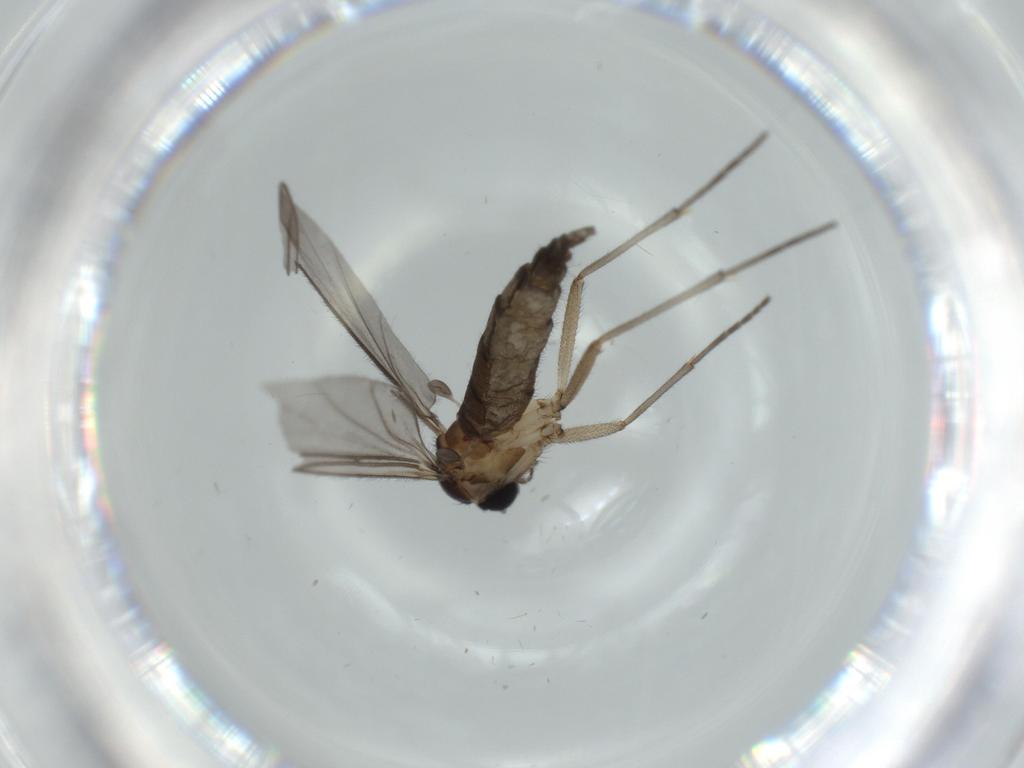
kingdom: Animalia
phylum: Arthropoda
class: Insecta
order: Diptera
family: Sciaridae
